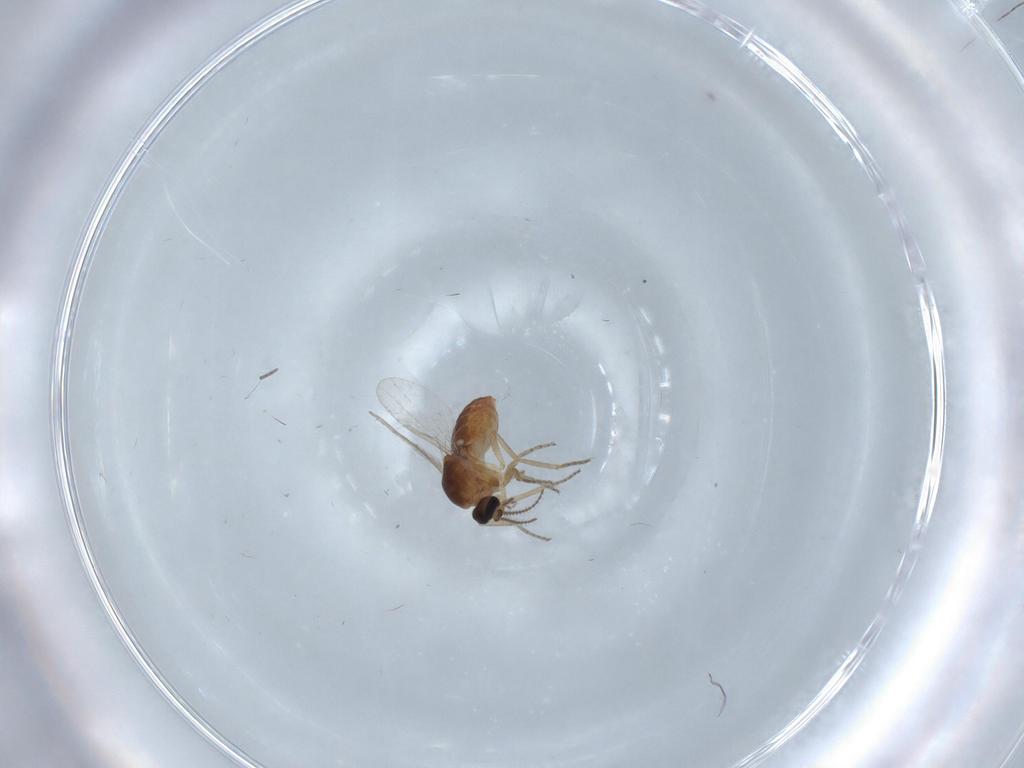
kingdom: Animalia
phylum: Arthropoda
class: Insecta
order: Diptera
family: Ceratopogonidae
